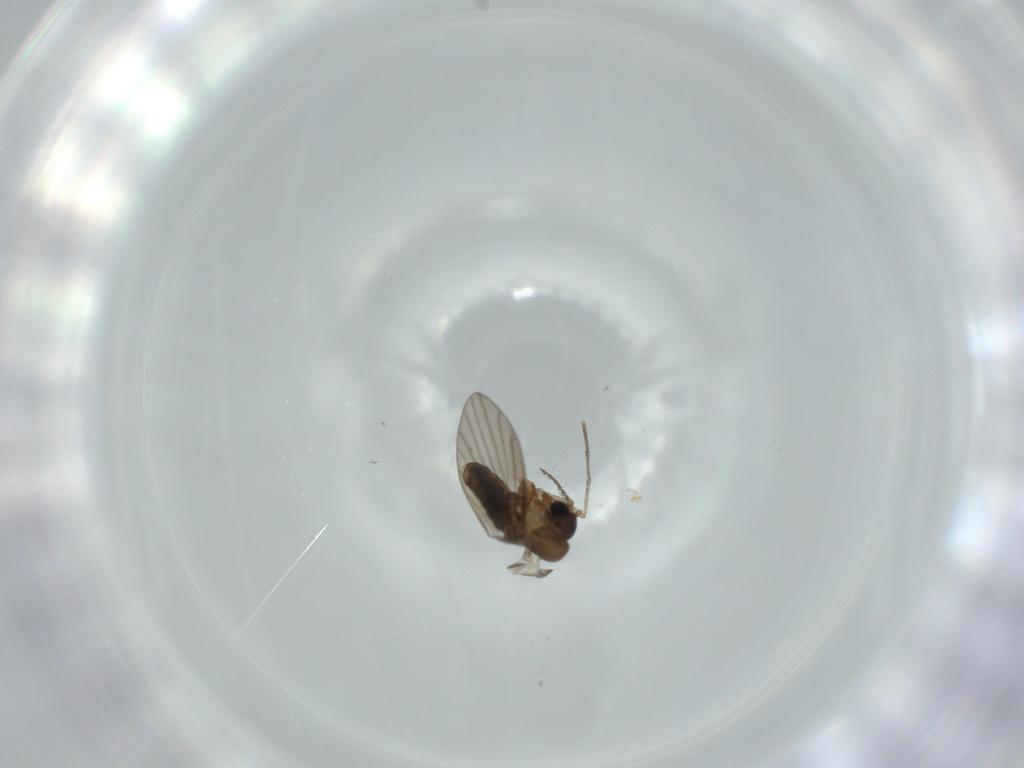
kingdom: Animalia
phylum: Arthropoda
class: Insecta
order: Diptera
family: Psychodidae
